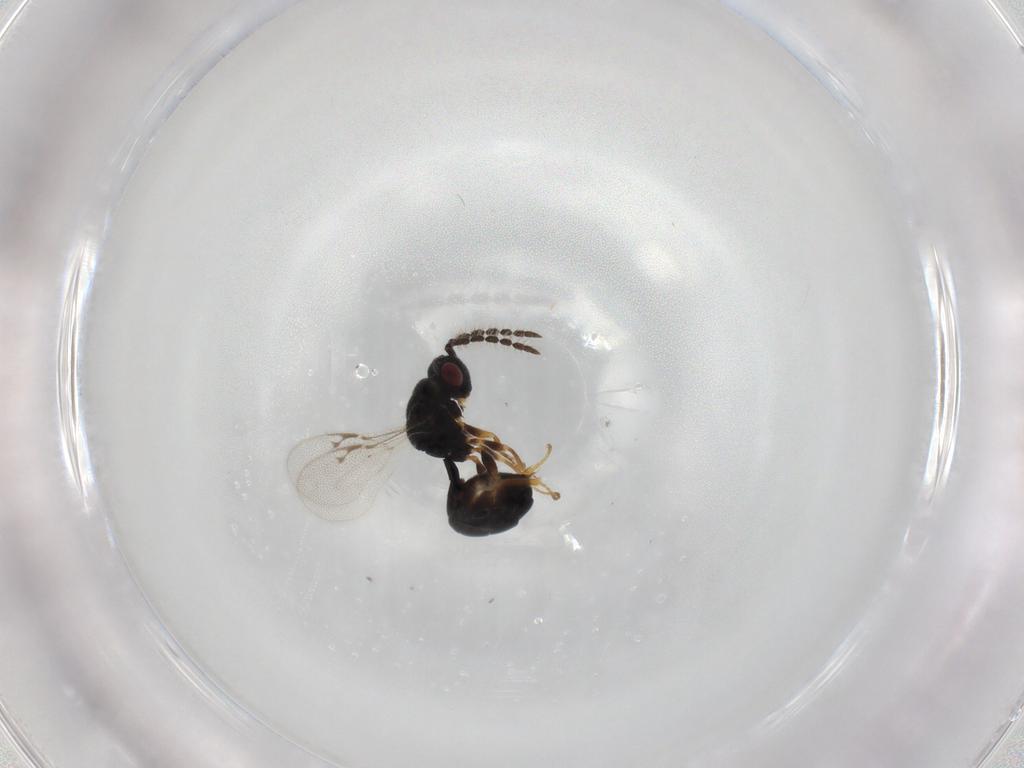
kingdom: Animalia
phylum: Arthropoda
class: Insecta
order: Hymenoptera
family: Eurytomidae
